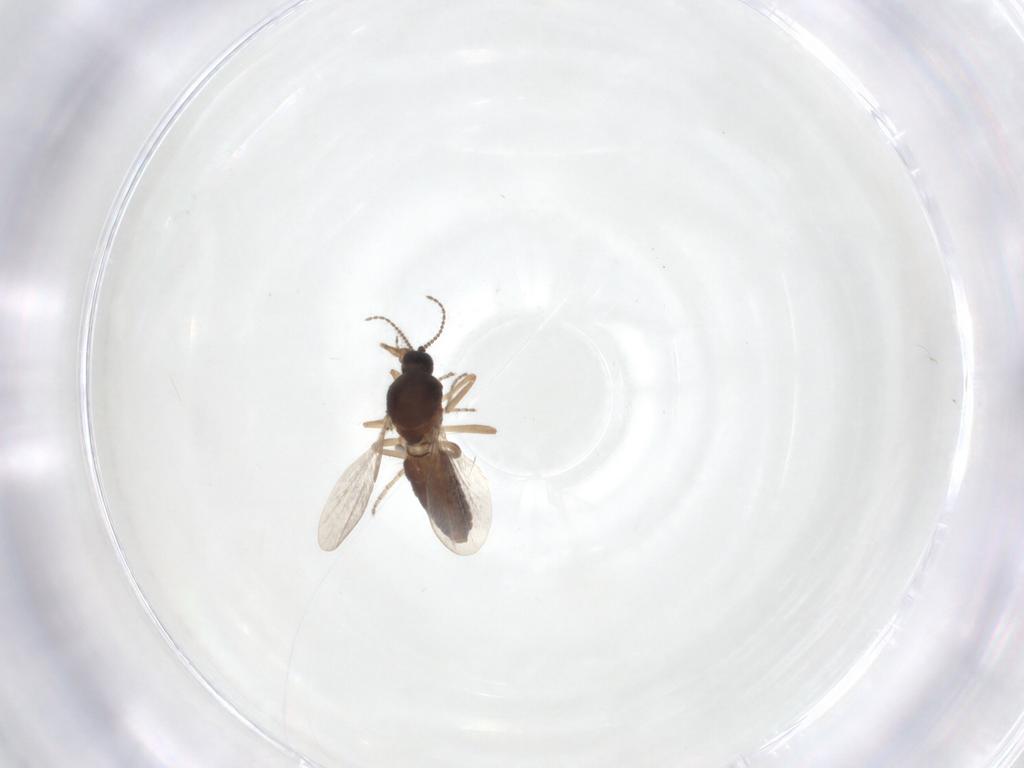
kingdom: Animalia
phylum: Arthropoda
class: Insecta
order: Diptera
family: Ceratopogonidae
